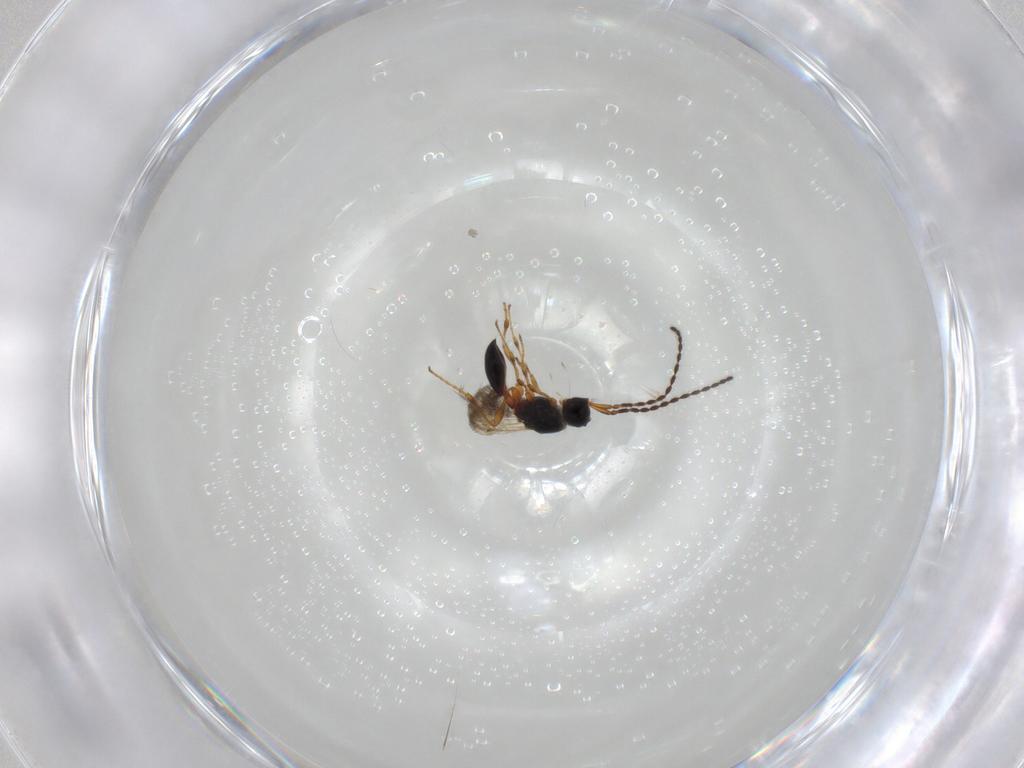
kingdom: Animalia
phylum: Arthropoda
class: Insecta
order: Hymenoptera
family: Diapriidae
